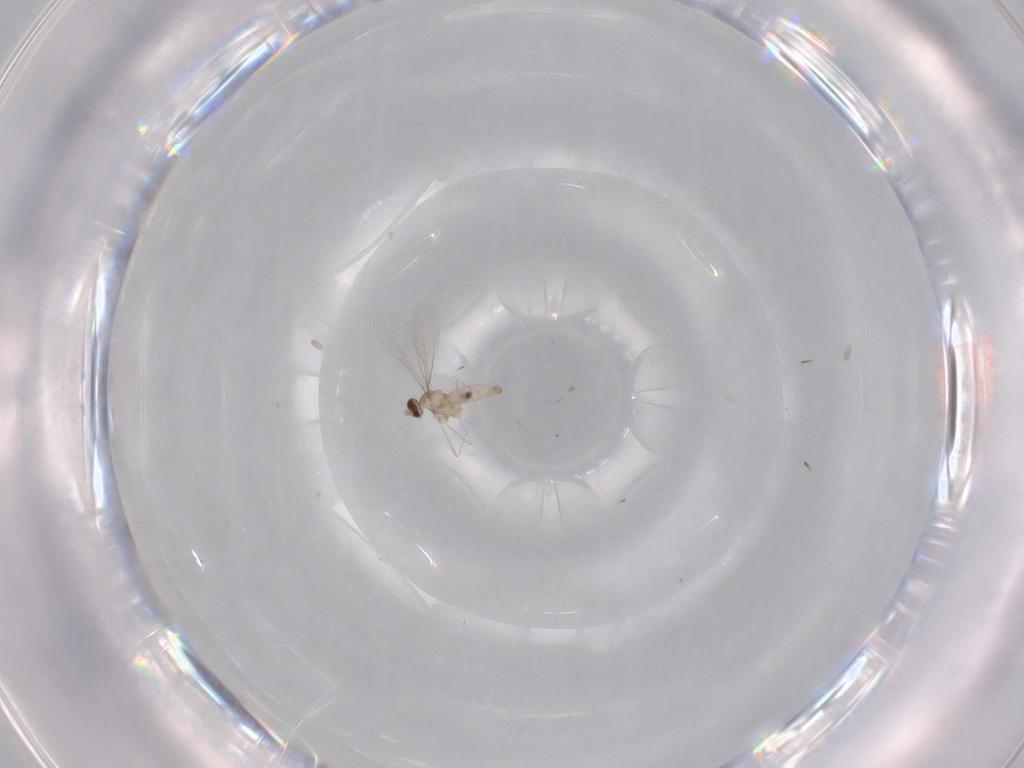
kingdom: Animalia
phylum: Arthropoda
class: Insecta
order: Diptera
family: Cecidomyiidae
